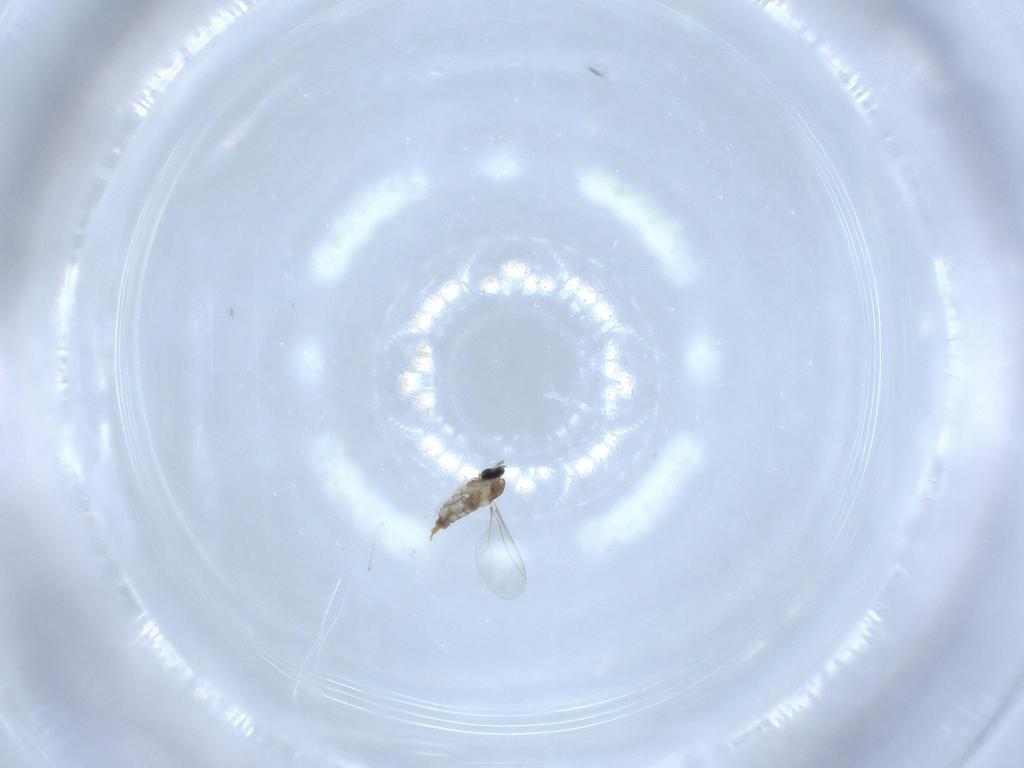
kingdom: Animalia
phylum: Arthropoda
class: Insecta
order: Diptera
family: Cecidomyiidae
